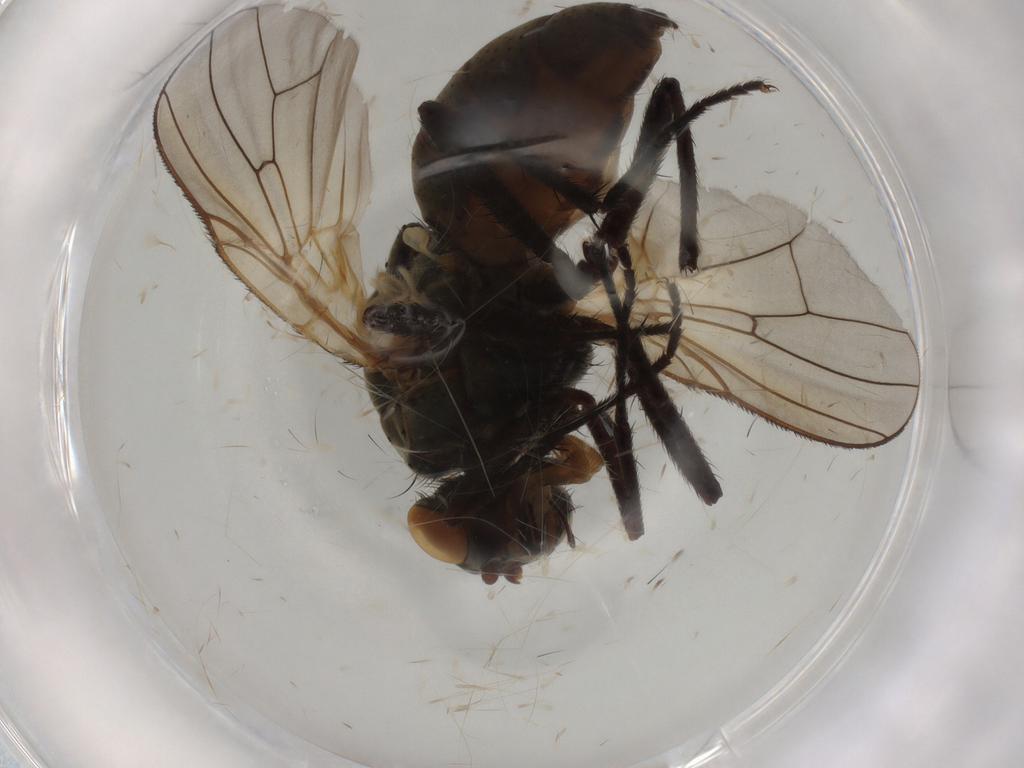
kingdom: Animalia
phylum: Arthropoda
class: Insecta
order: Diptera
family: Anthomyiidae
